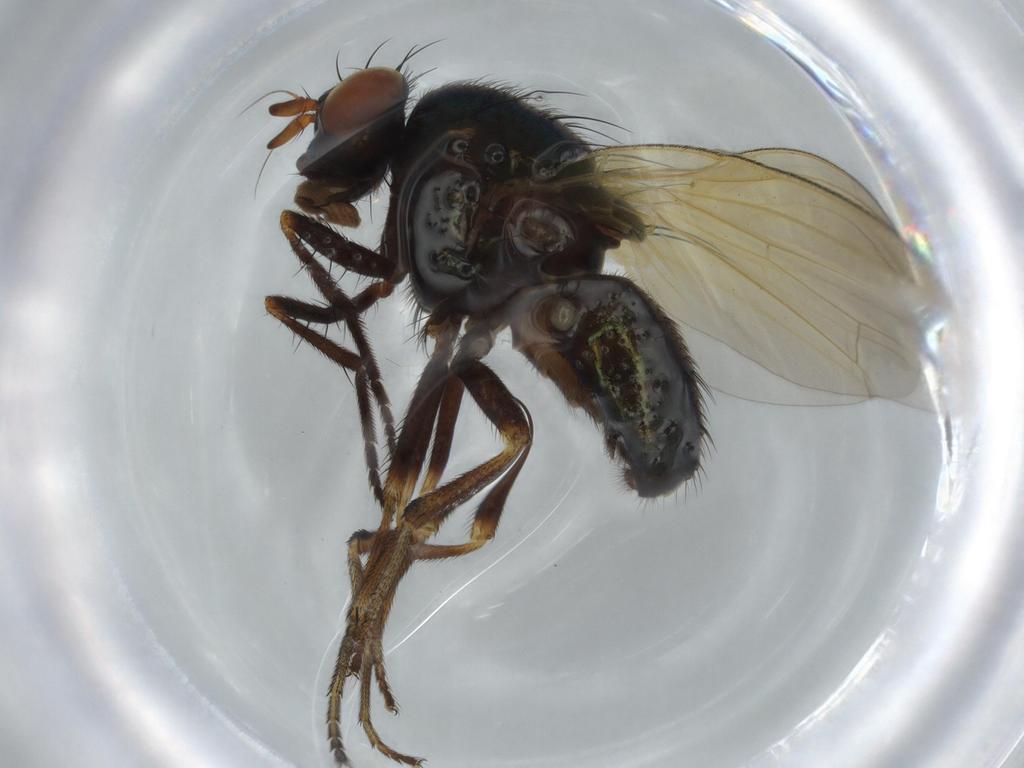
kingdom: Animalia
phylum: Arthropoda
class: Insecta
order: Diptera
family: Lauxaniidae
